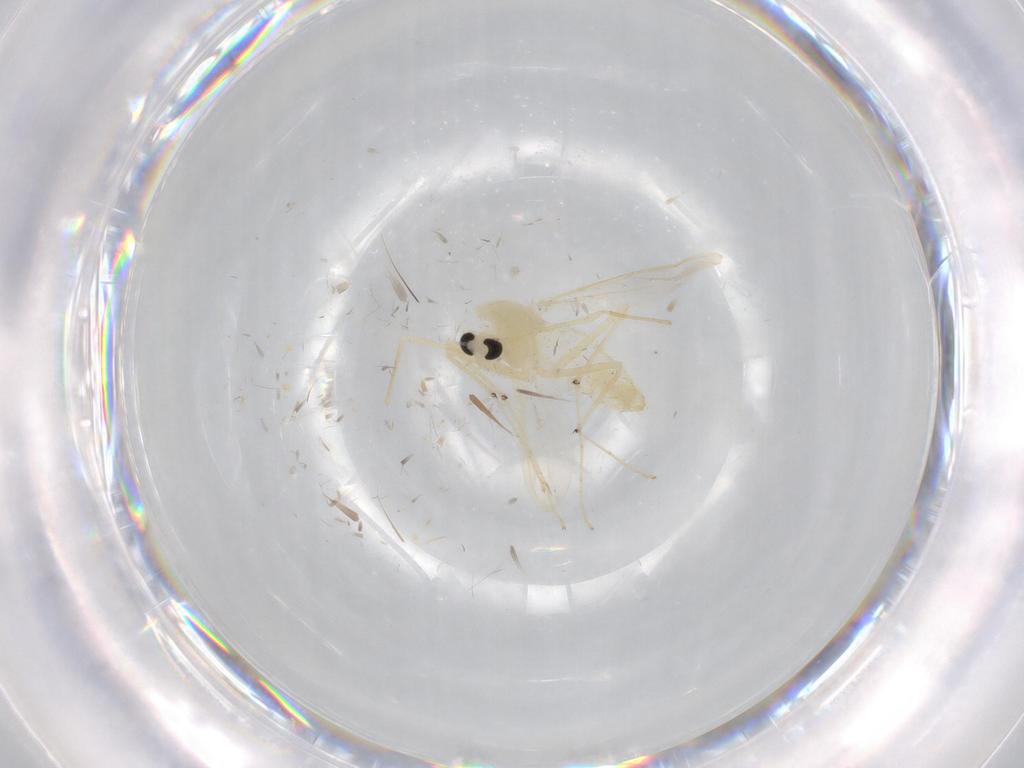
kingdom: Animalia
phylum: Arthropoda
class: Insecta
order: Diptera
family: Chironomidae
